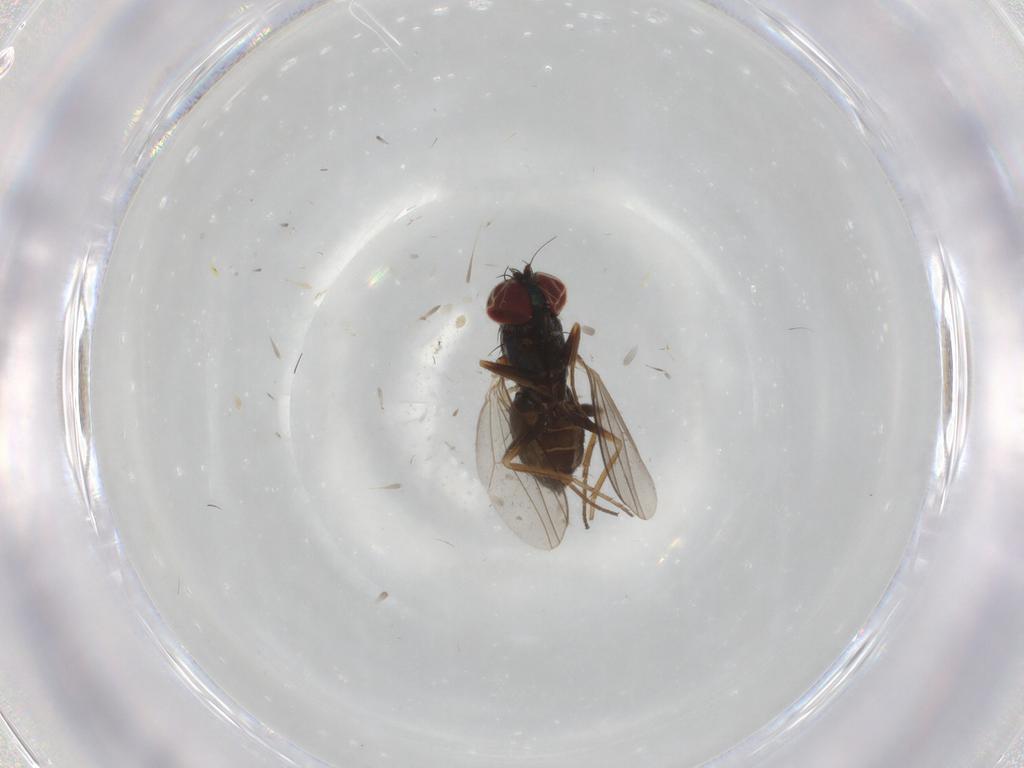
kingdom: Animalia
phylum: Arthropoda
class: Insecta
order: Diptera
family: Dolichopodidae
